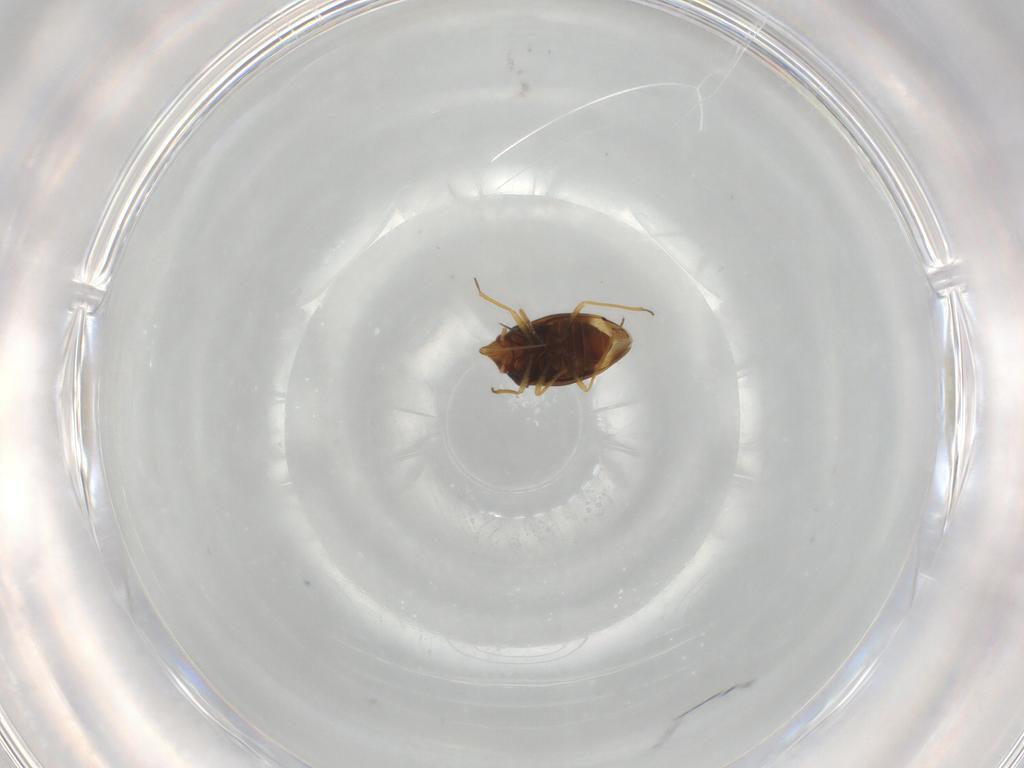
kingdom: Animalia
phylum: Arthropoda
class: Insecta
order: Hemiptera
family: Schizopteridae
